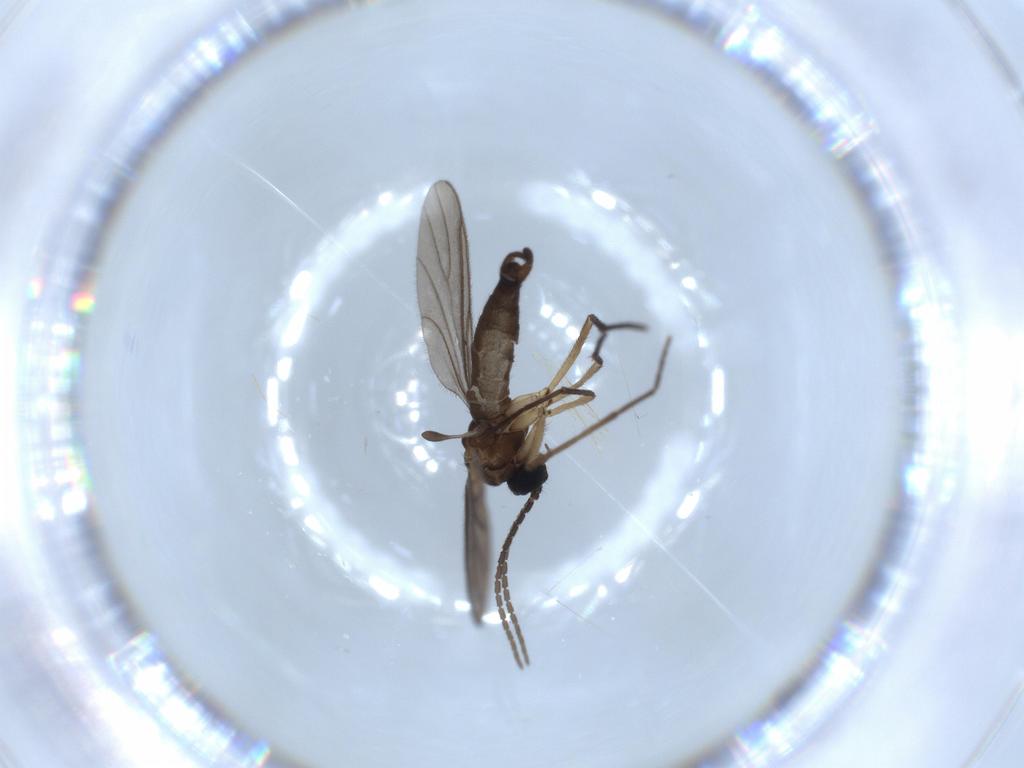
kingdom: Animalia
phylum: Arthropoda
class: Insecta
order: Diptera
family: Sciaridae
